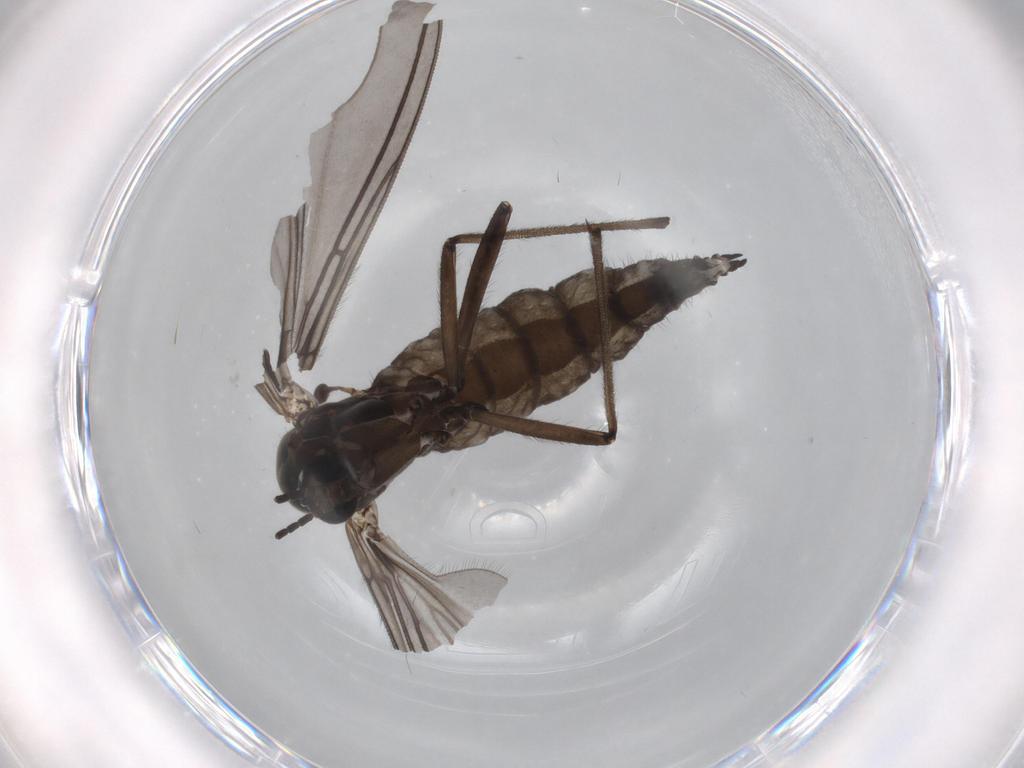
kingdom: Animalia
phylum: Arthropoda
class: Insecta
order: Diptera
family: Sciaridae
